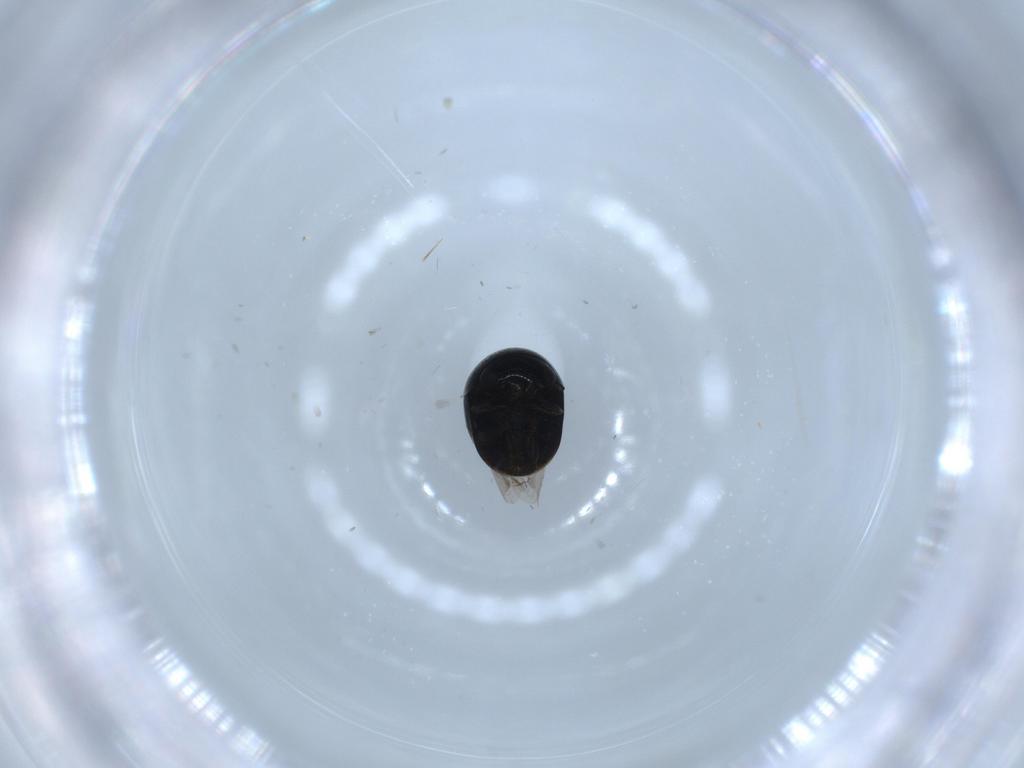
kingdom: Animalia
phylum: Arthropoda
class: Insecta
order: Coleoptera
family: Cybocephalidae
